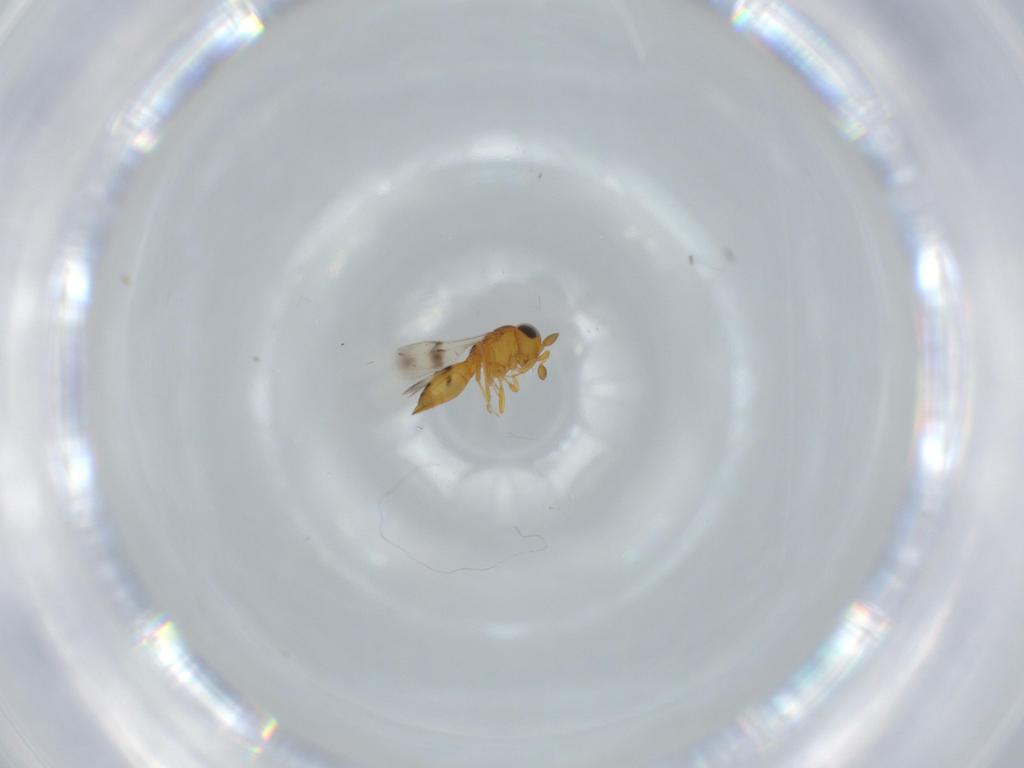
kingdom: Animalia
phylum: Arthropoda
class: Insecta
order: Hymenoptera
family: Scelionidae
